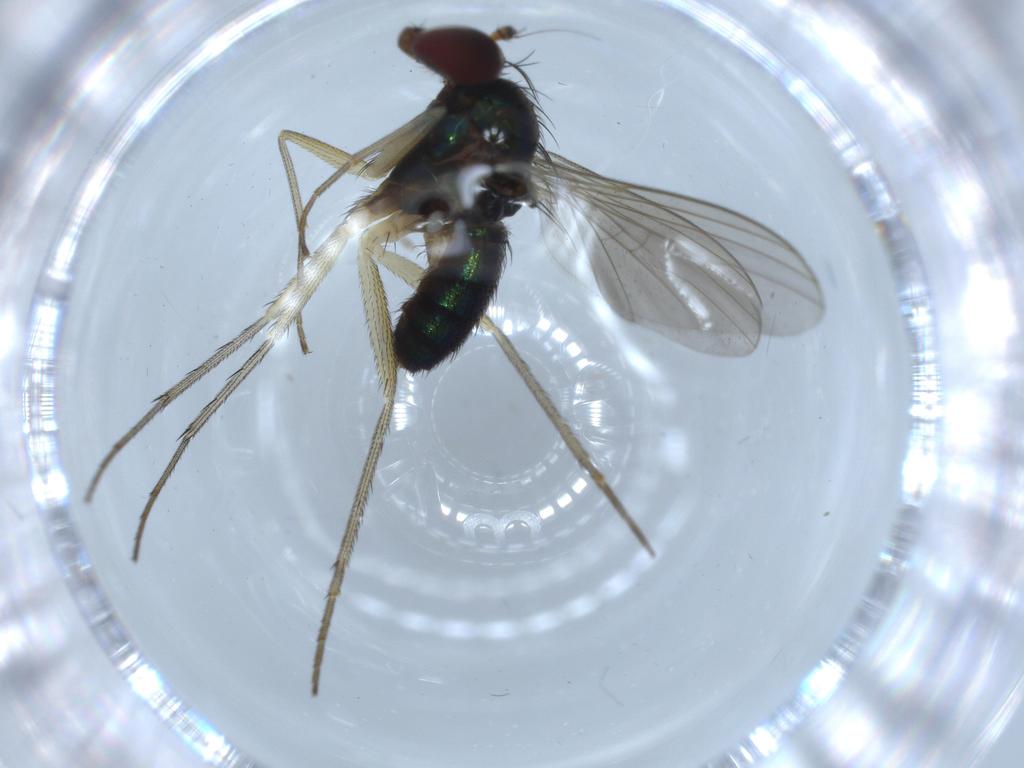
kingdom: Animalia
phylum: Arthropoda
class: Insecta
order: Diptera
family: Dolichopodidae
